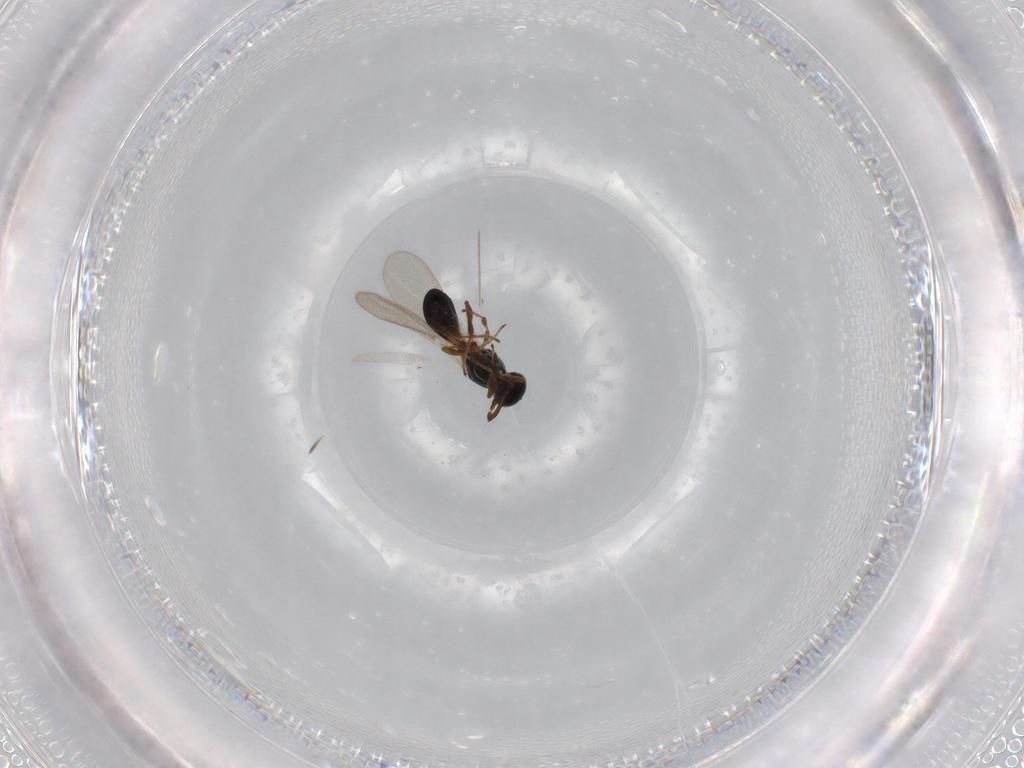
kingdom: Animalia
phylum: Arthropoda
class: Insecta
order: Hymenoptera
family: Platygastridae
